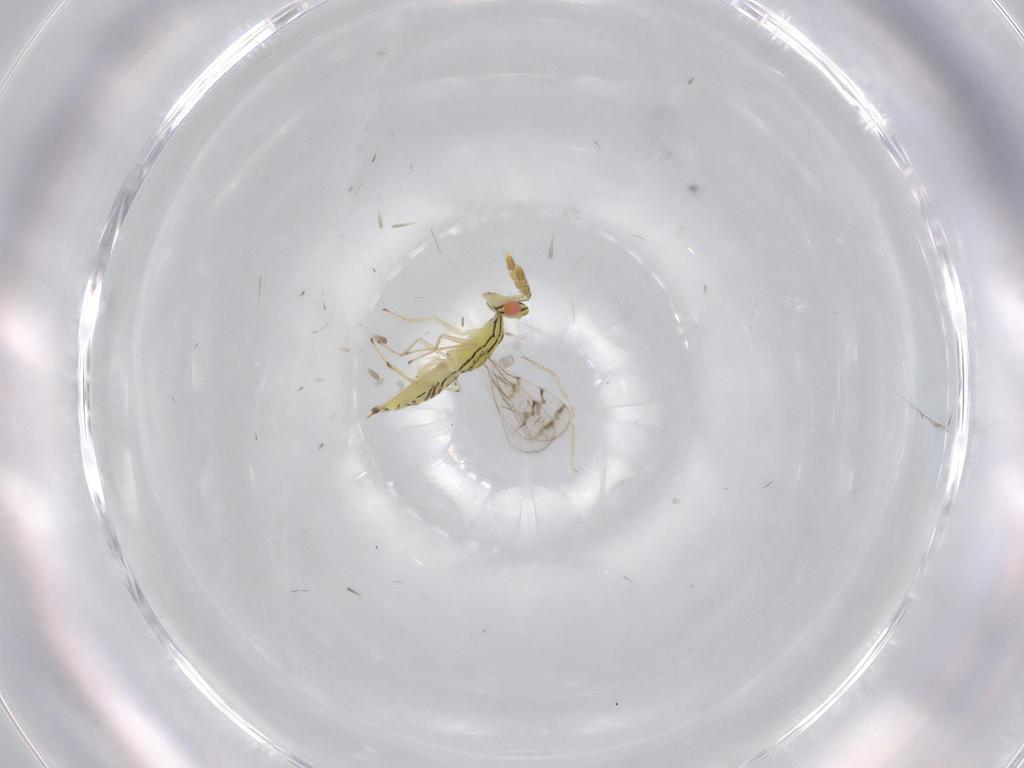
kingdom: Animalia
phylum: Arthropoda
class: Insecta
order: Hymenoptera
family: Eulophidae
